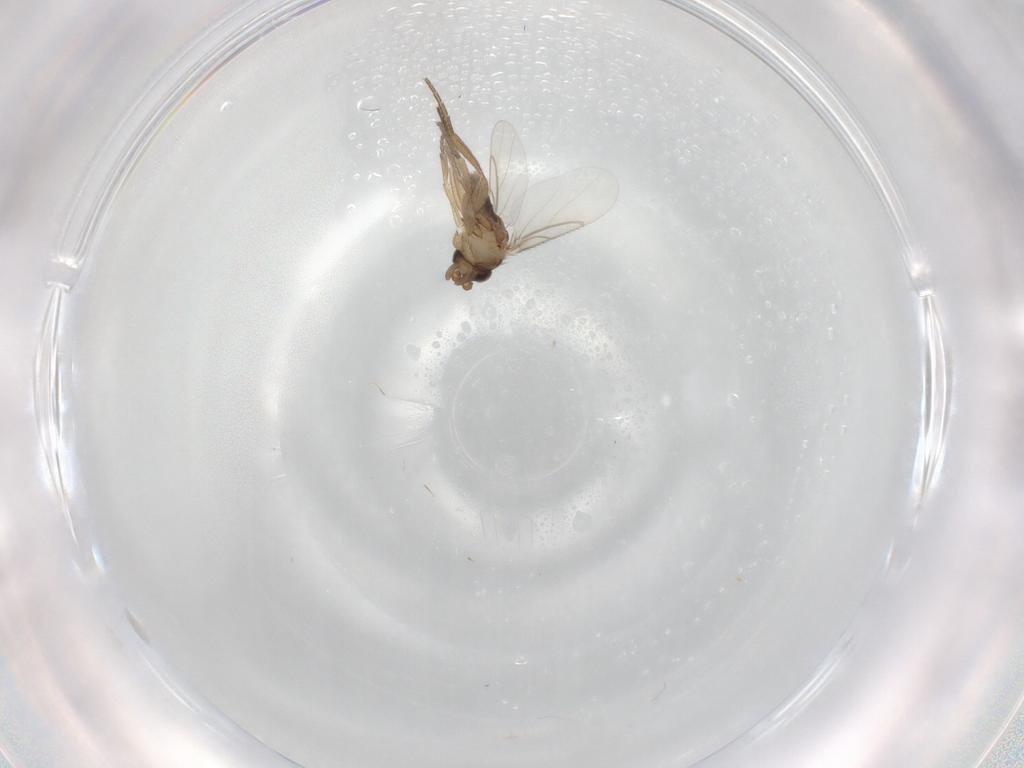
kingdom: Animalia
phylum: Arthropoda
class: Insecta
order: Diptera
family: Phoridae
